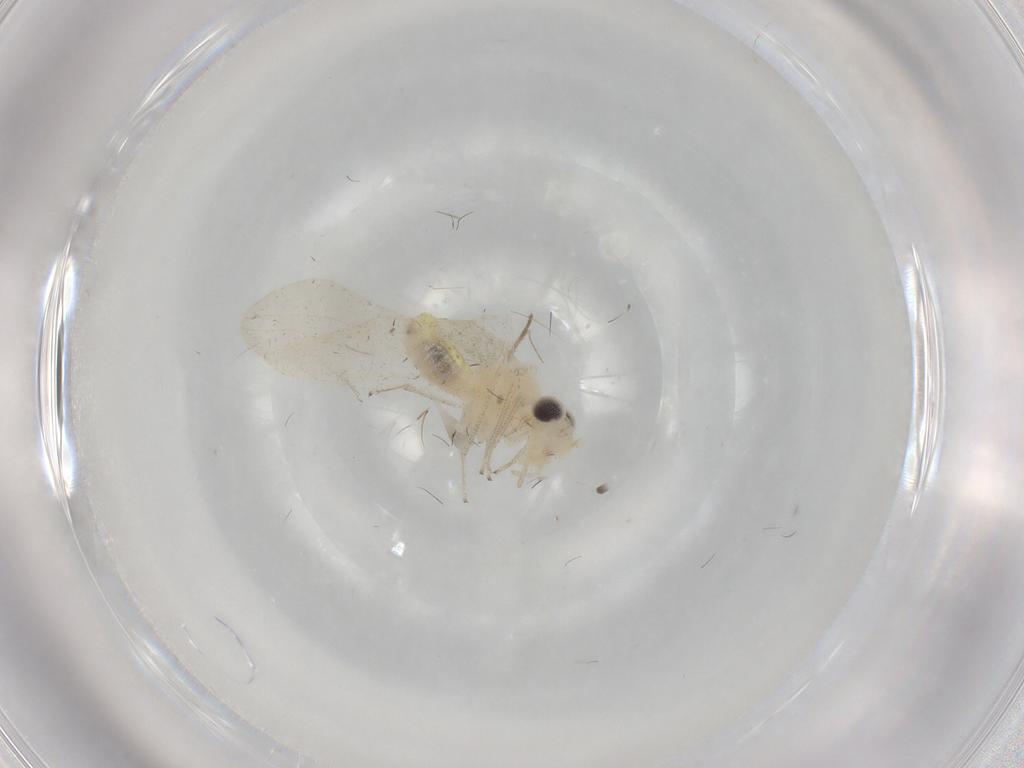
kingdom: Animalia
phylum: Arthropoda
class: Insecta
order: Psocodea
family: Caeciliusidae
